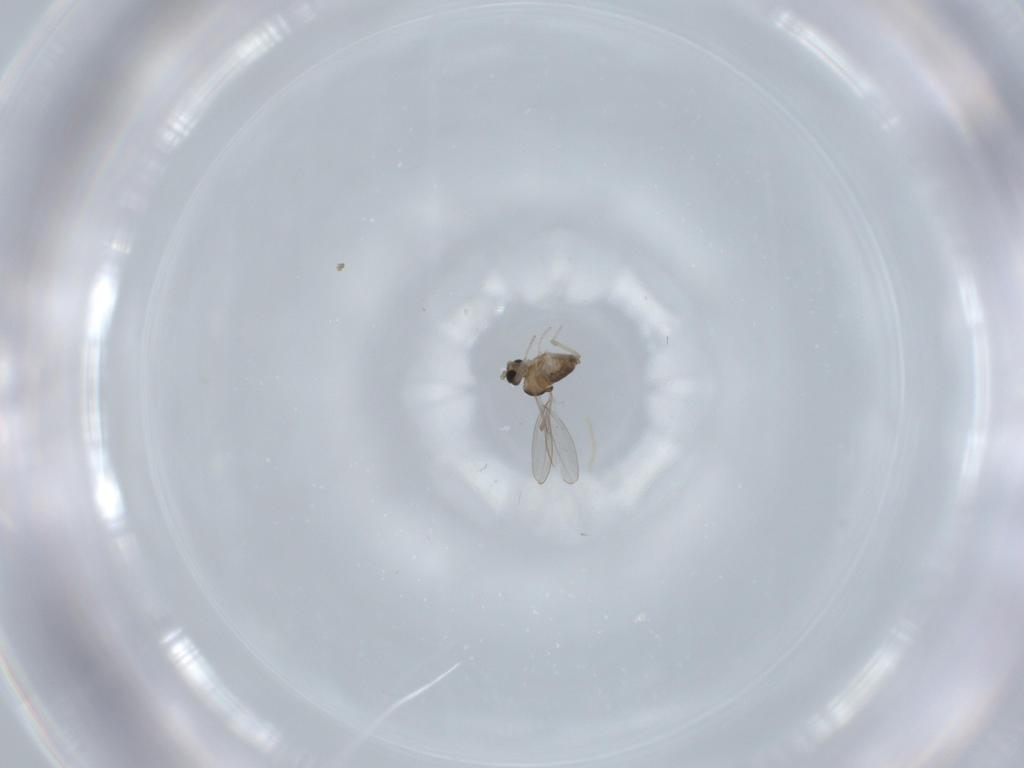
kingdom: Animalia
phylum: Arthropoda
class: Insecta
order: Diptera
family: Cecidomyiidae
